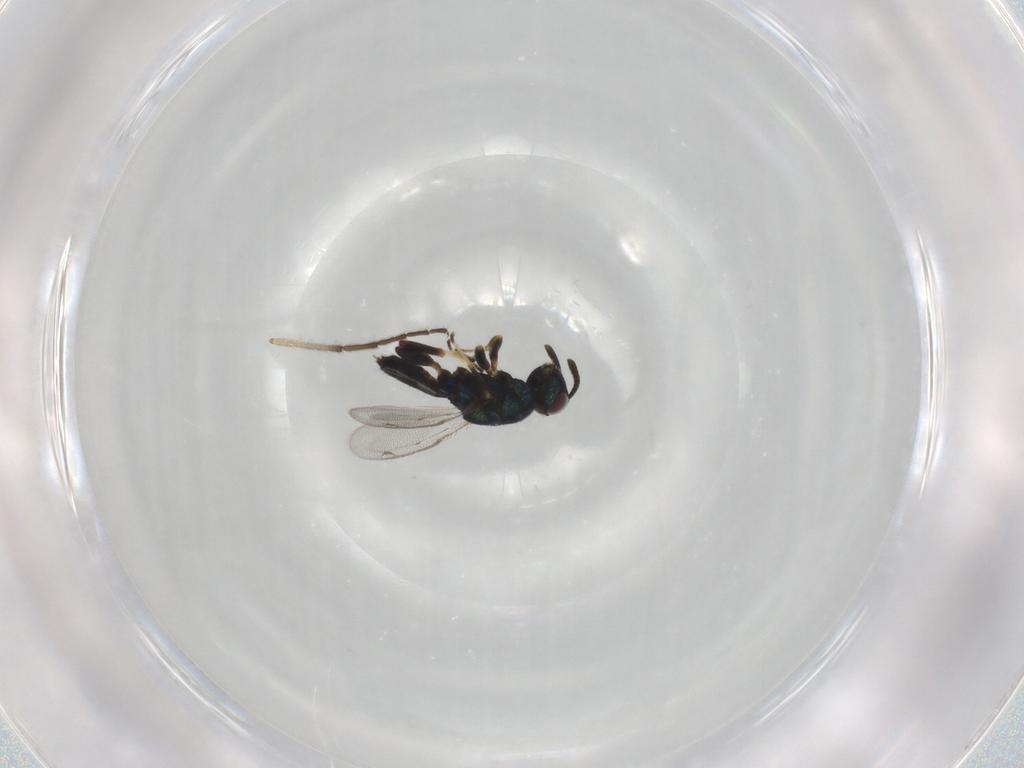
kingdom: Animalia
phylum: Arthropoda
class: Insecta
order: Hymenoptera
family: Eupelmidae
